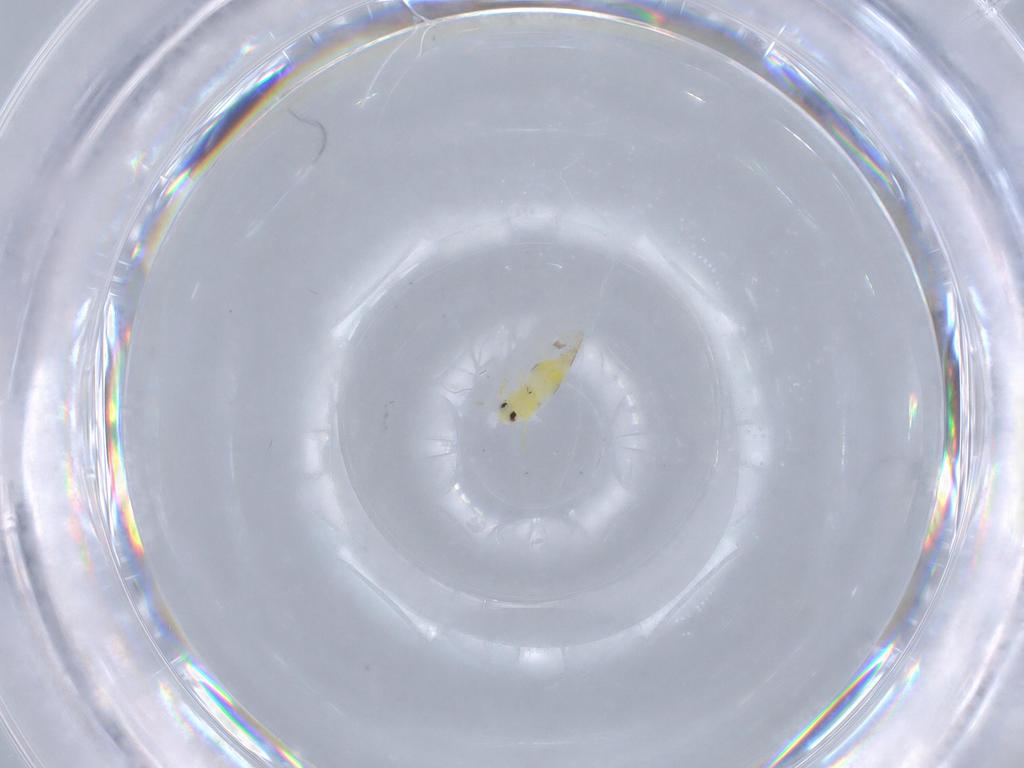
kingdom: Animalia
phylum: Arthropoda
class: Insecta
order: Hemiptera
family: Aleyrodidae
